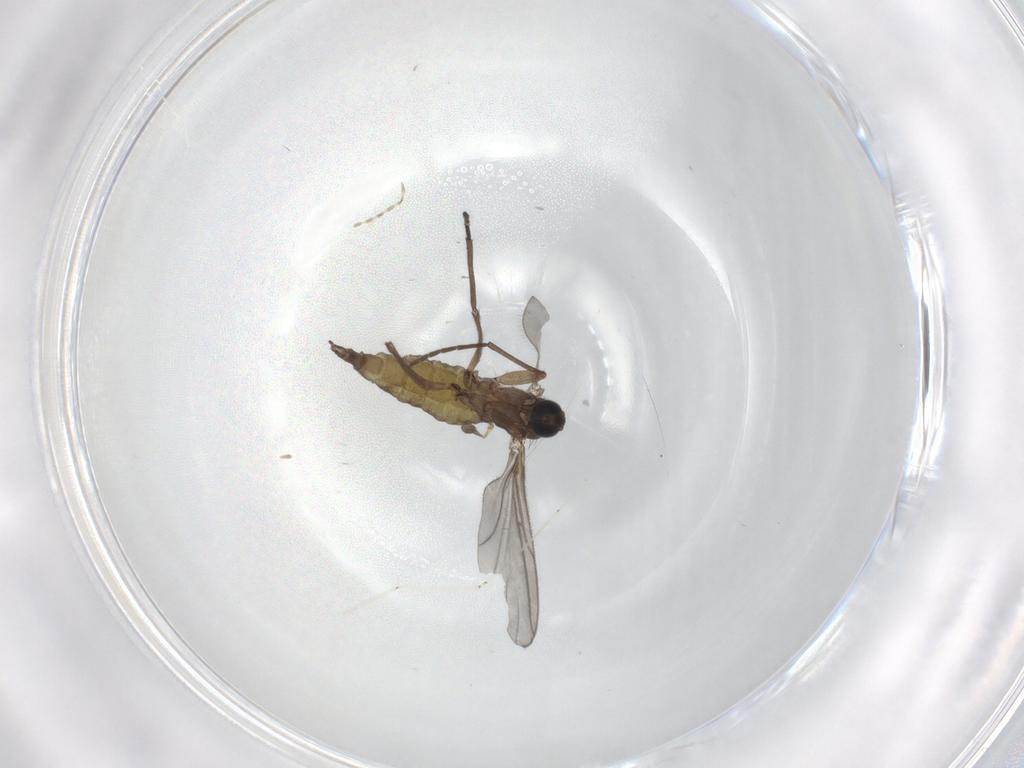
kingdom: Animalia
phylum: Arthropoda
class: Insecta
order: Diptera
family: Cecidomyiidae
